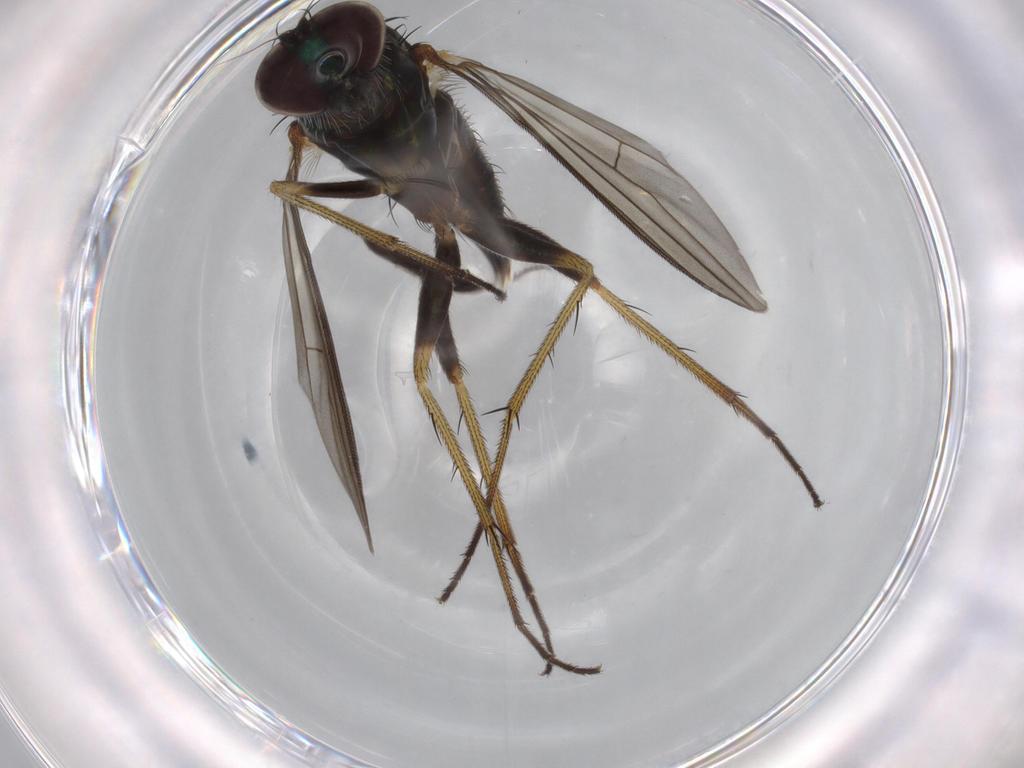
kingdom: Animalia
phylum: Arthropoda
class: Insecta
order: Diptera
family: Dolichopodidae
